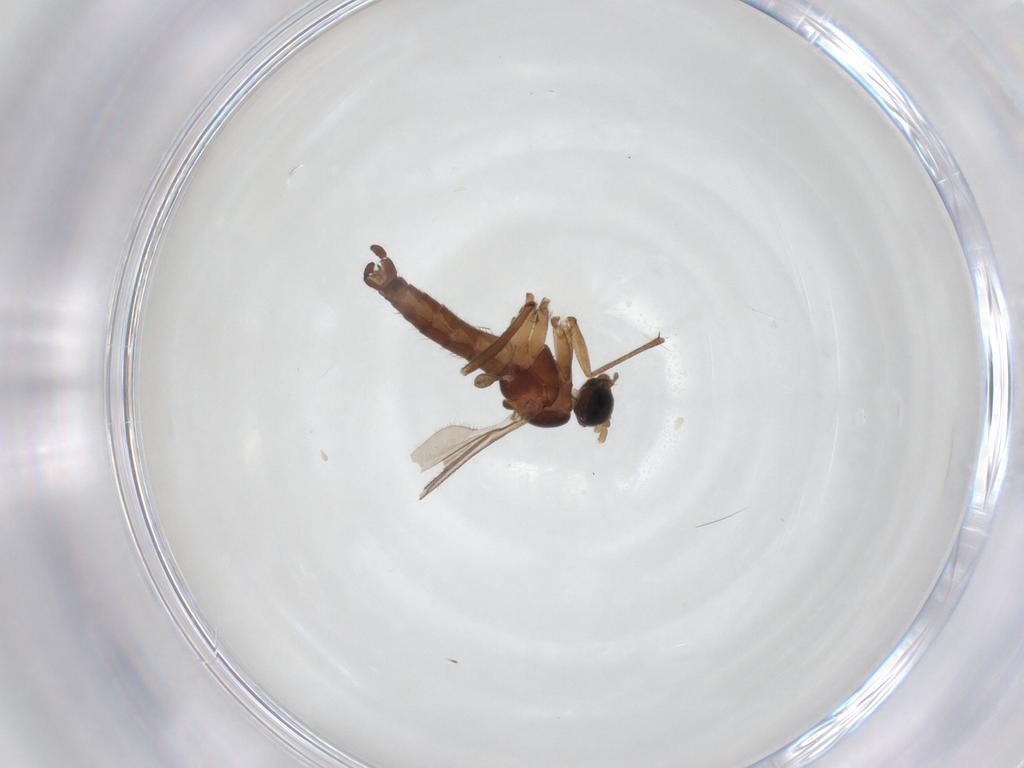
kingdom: Animalia
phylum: Arthropoda
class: Insecta
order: Diptera
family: Sciaridae
